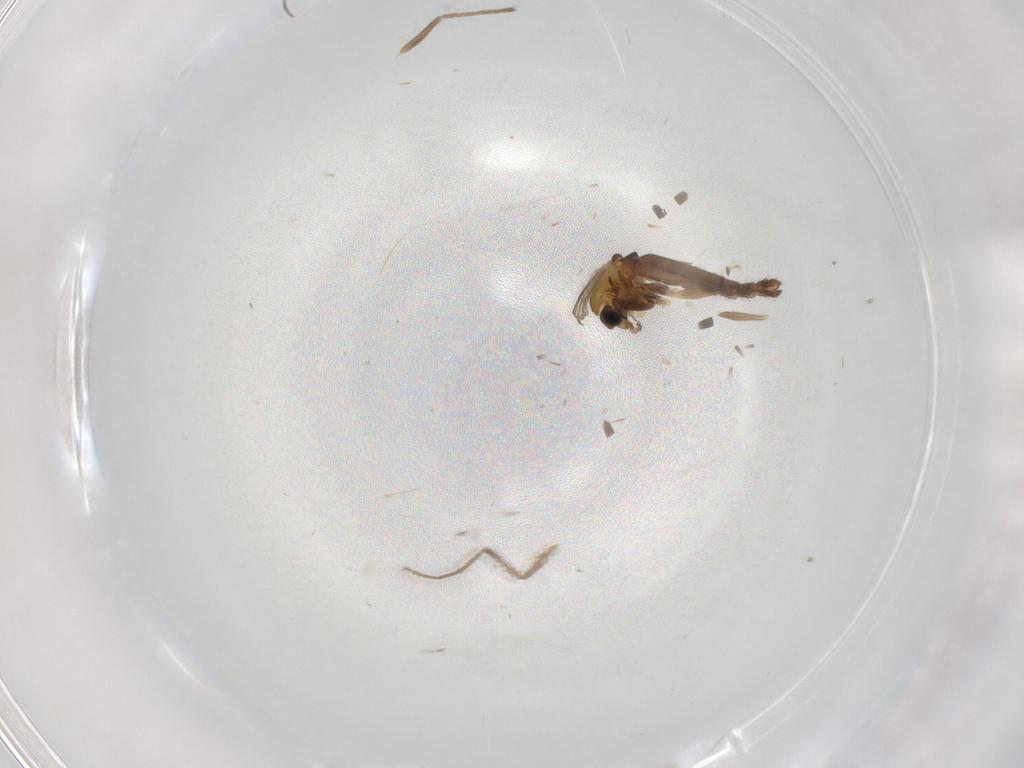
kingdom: Animalia
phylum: Arthropoda
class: Insecta
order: Diptera
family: Chironomidae
